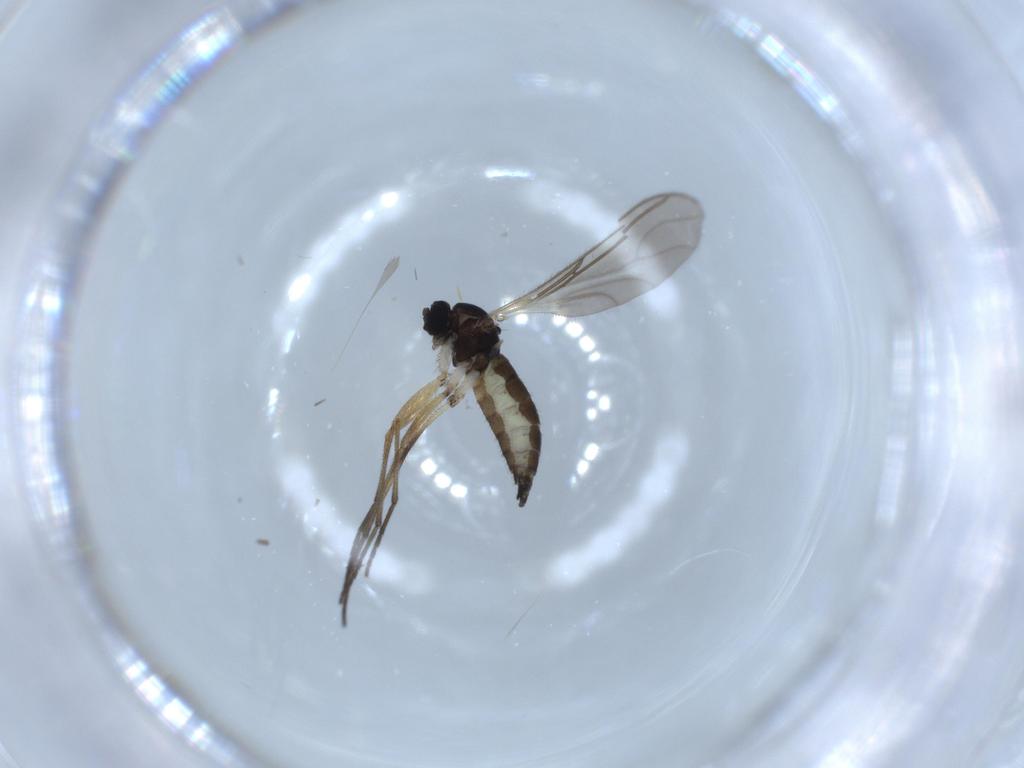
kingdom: Animalia
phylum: Arthropoda
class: Insecta
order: Diptera
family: Sciaridae
